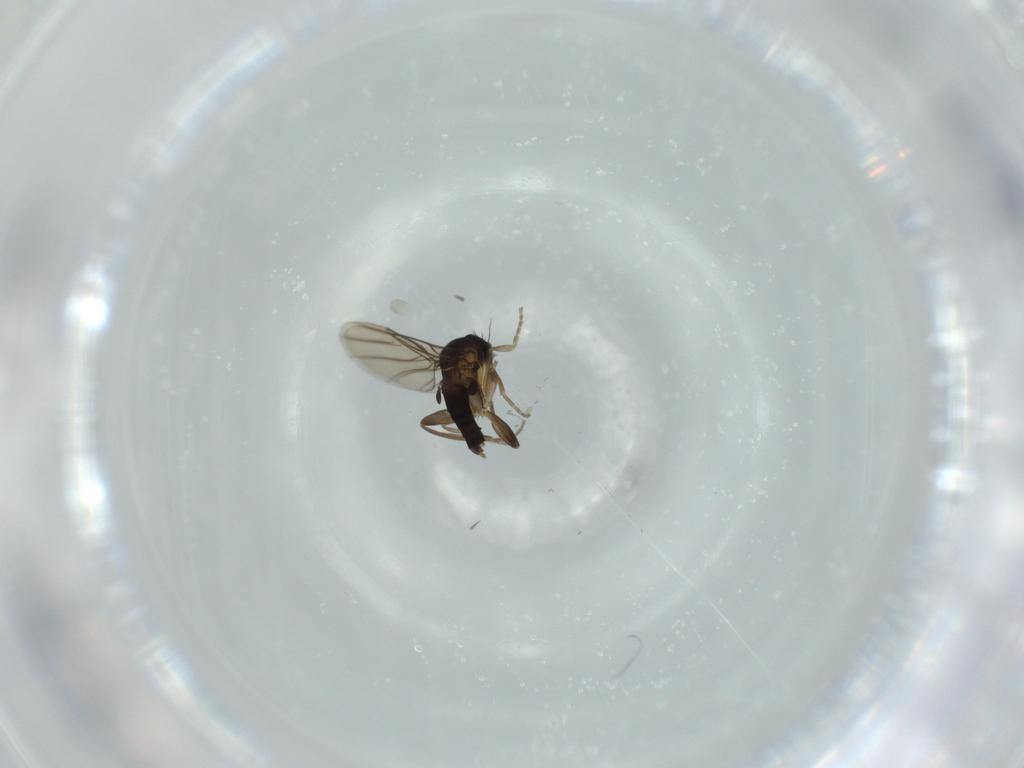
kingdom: Animalia
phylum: Arthropoda
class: Insecta
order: Diptera
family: Phoridae
